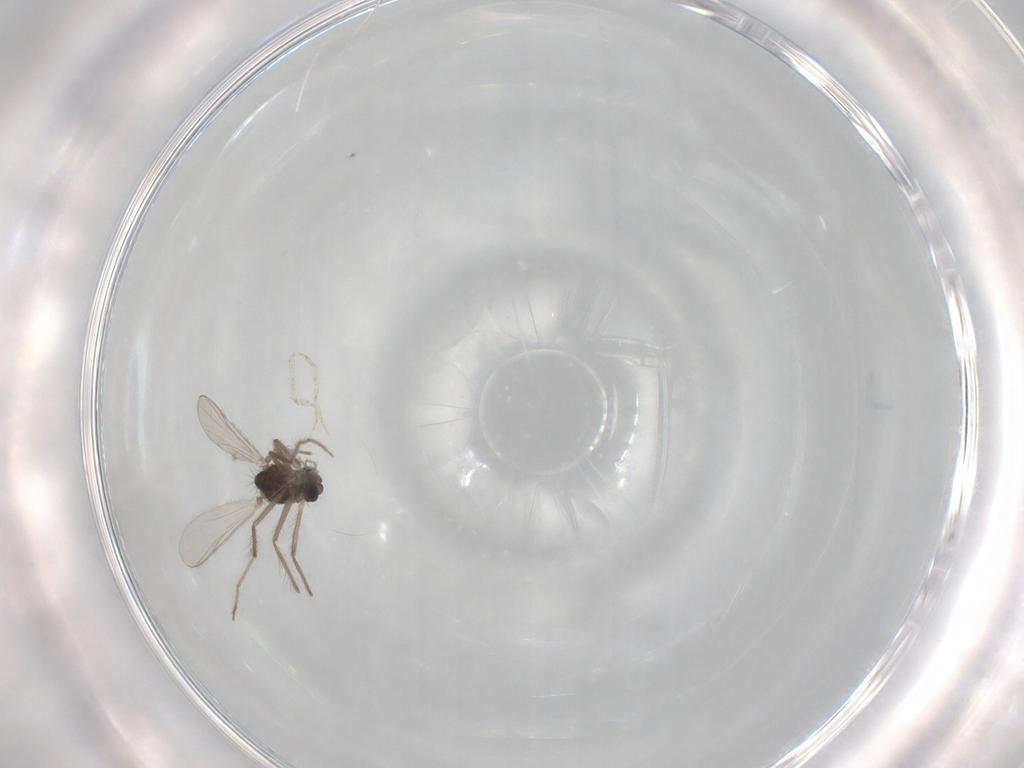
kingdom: Animalia
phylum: Arthropoda
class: Insecta
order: Diptera
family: Chironomidae
